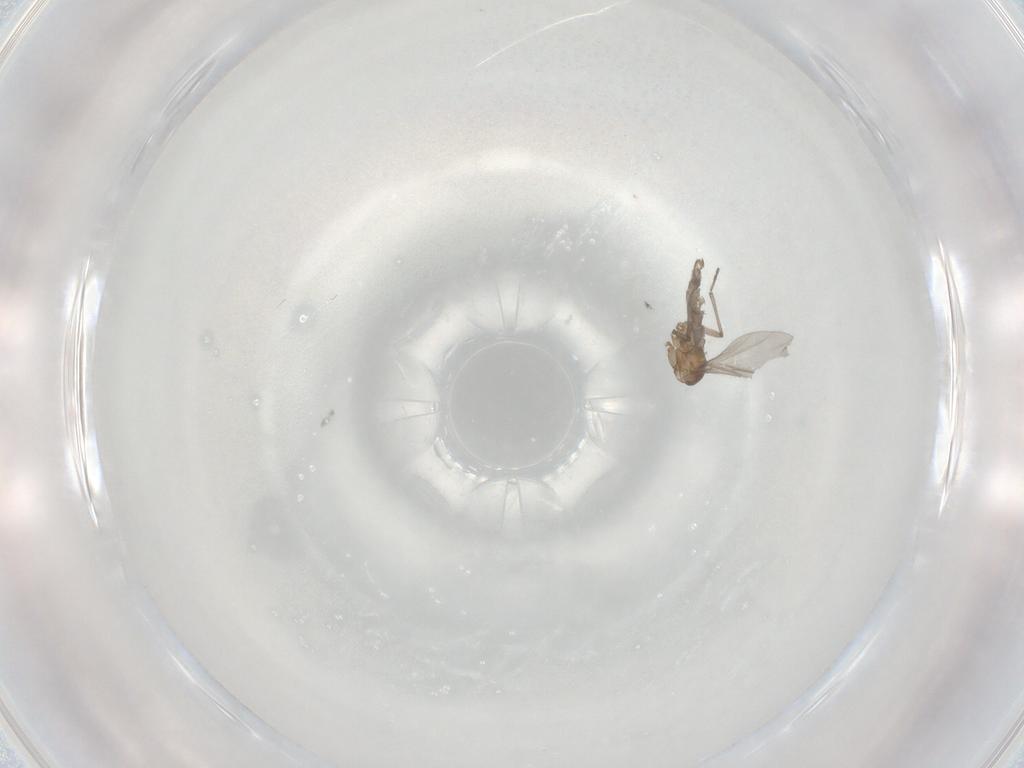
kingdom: Animalia
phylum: Arthropoda
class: Insecta
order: Diptera
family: Sciaridae
